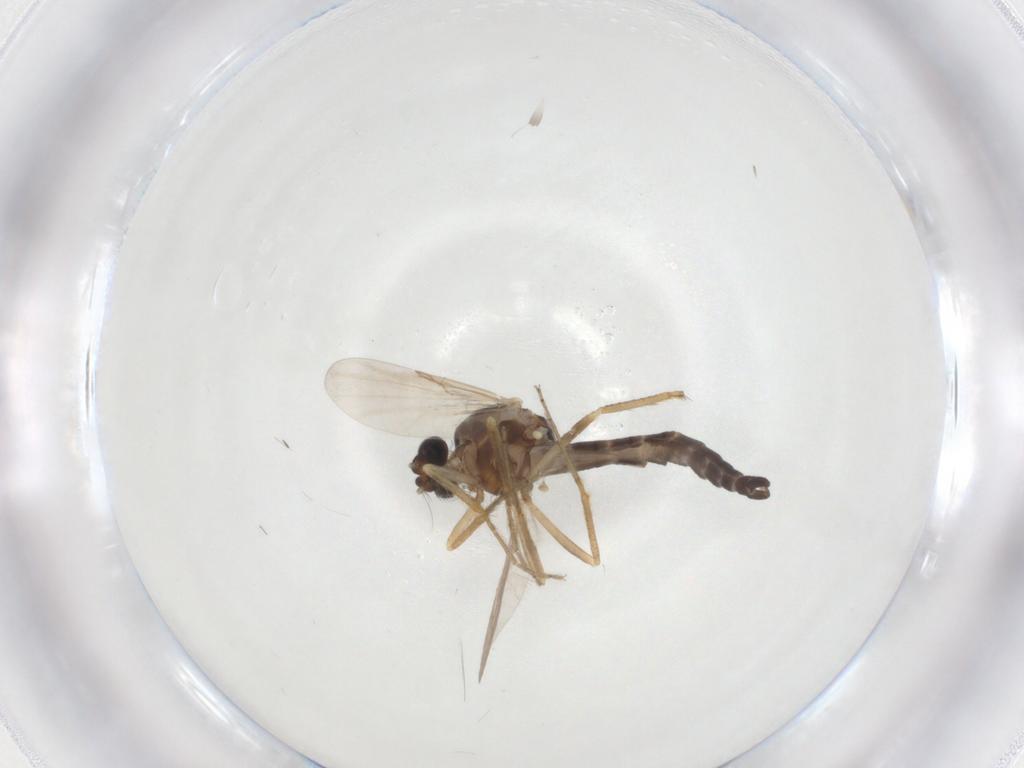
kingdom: Animalia
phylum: Arthropoda
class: Insecta
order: Diptera
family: Ceratopogonidae
